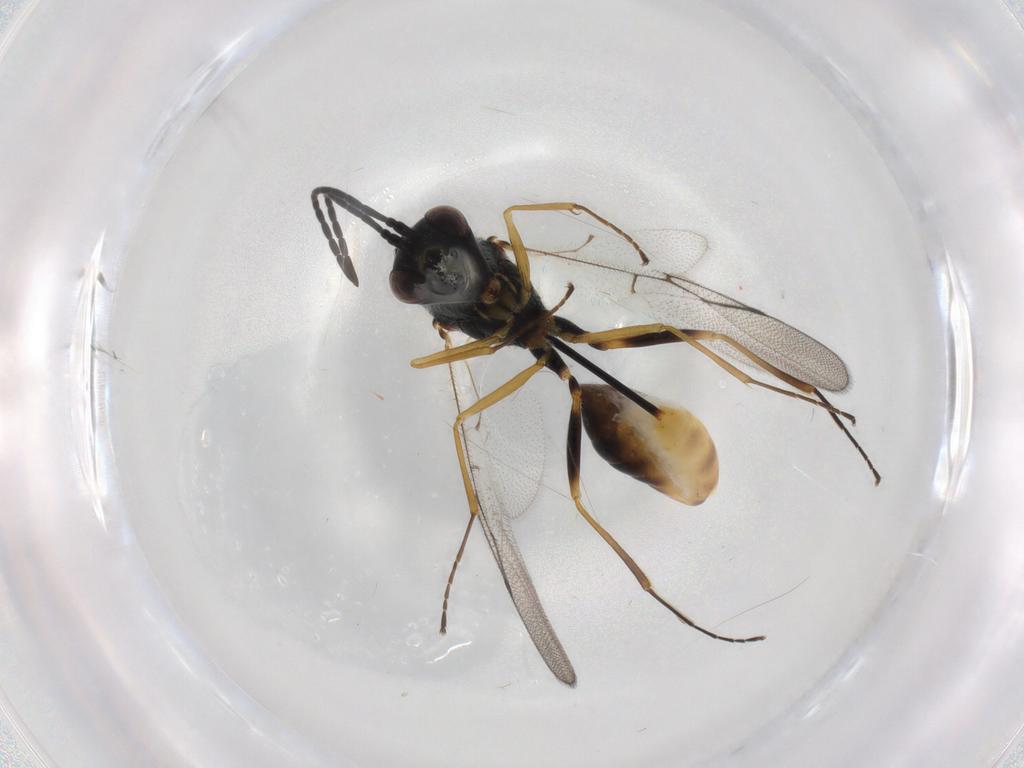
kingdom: Animalia
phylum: Arthropoda
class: Insecta
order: Hymenoptera
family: Figitidae
